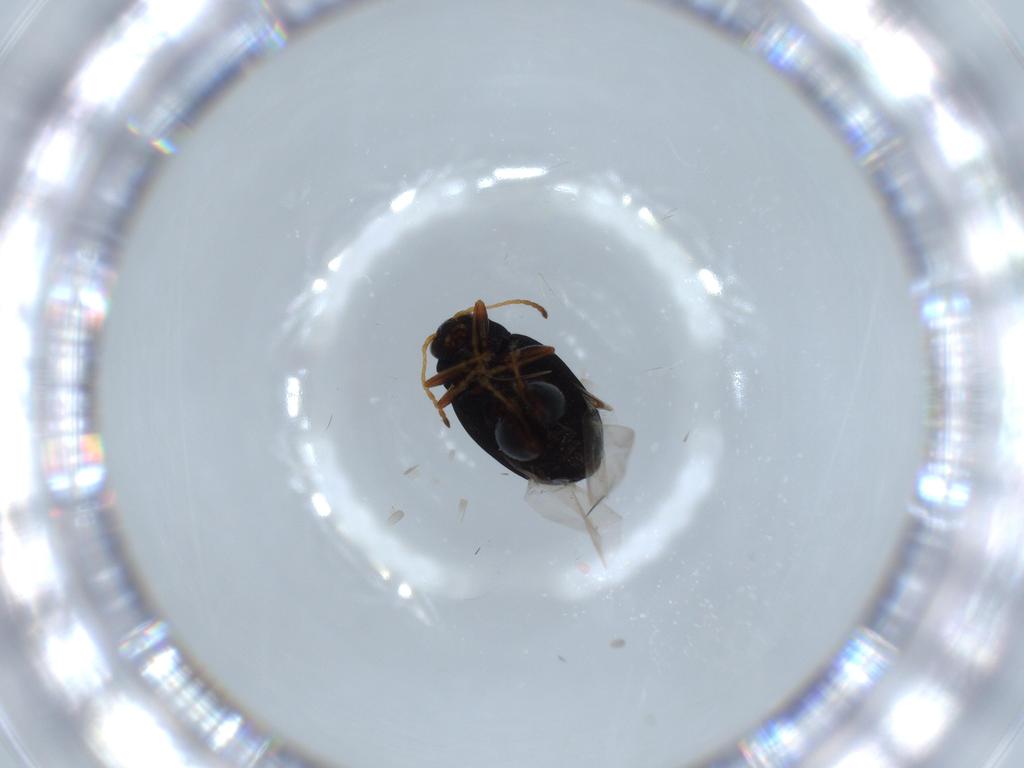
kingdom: Animalia
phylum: Arthropoda
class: Insecta
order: Coleoptera
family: Chrysomelidae
